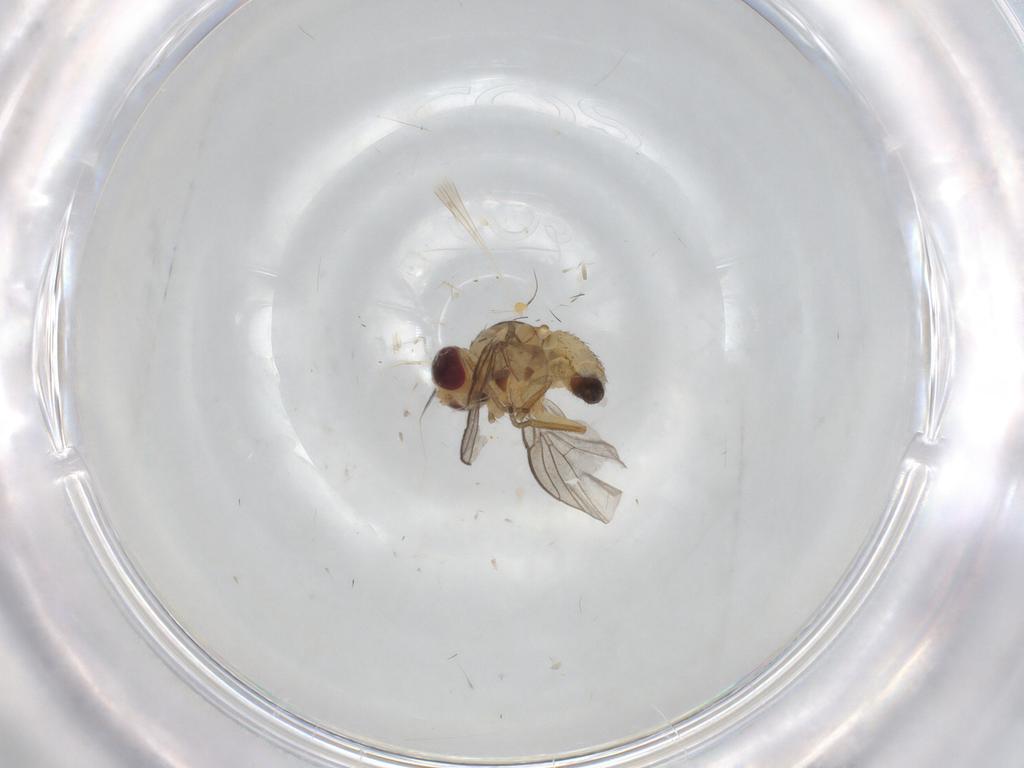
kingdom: Animalia
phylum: Arthropoda
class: Insecta
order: Diptera
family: Agromyzidae
